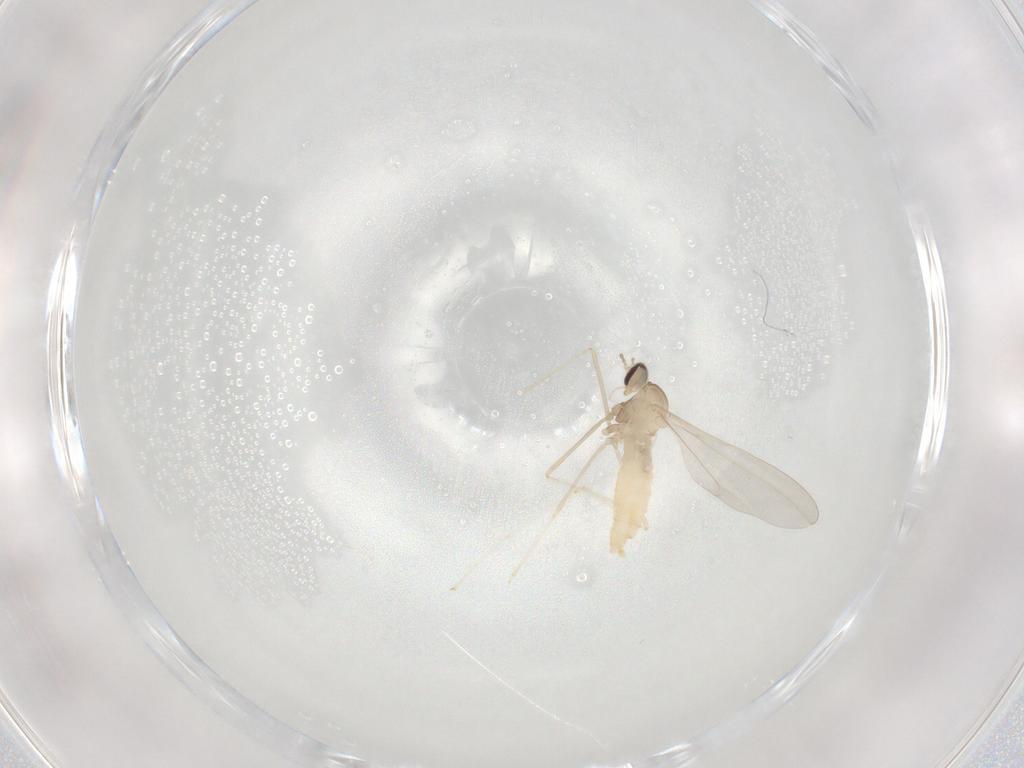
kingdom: Animalia
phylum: Arthropoda
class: Insecta
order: Diptera
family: Cecidomyiidae
